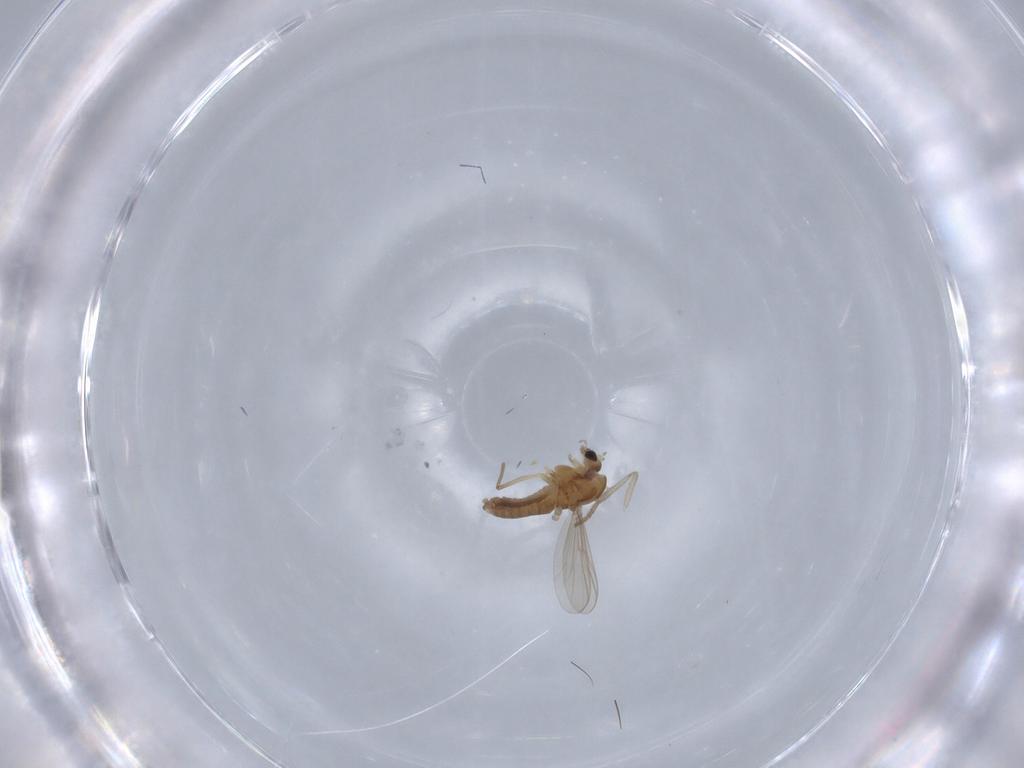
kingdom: Animalia
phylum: Arthropoda
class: Insecta
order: Diptera
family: Chironomidae
